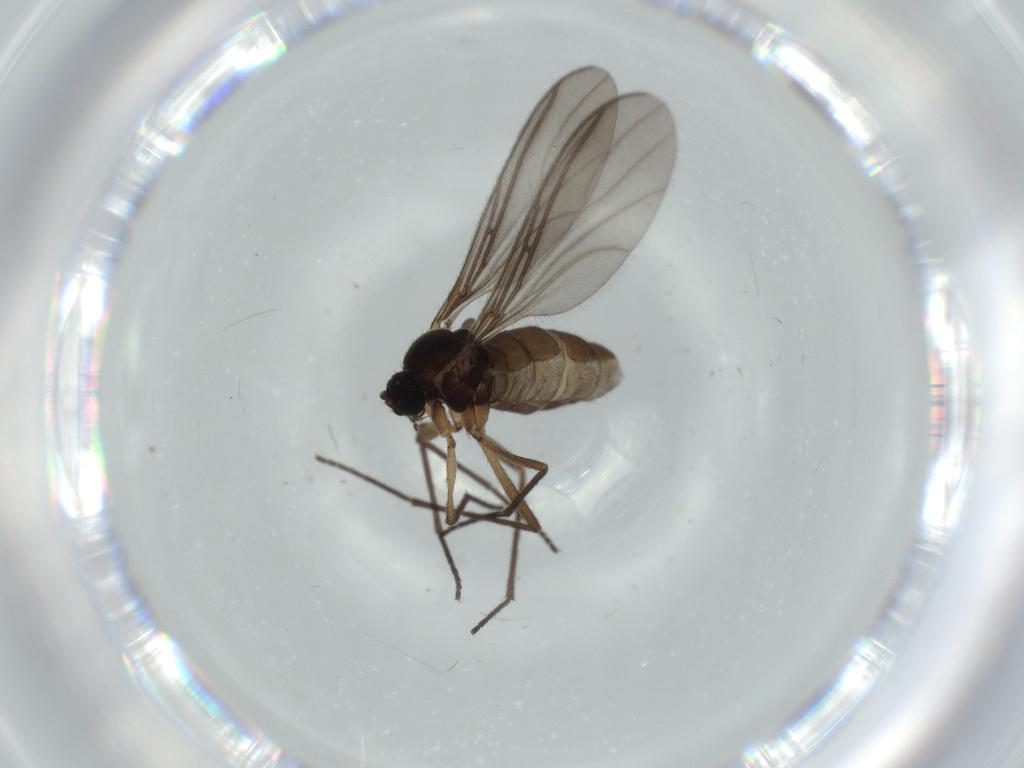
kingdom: Animalia
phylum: Arthropoda
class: Insecta
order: Diptera
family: Sciaridae
